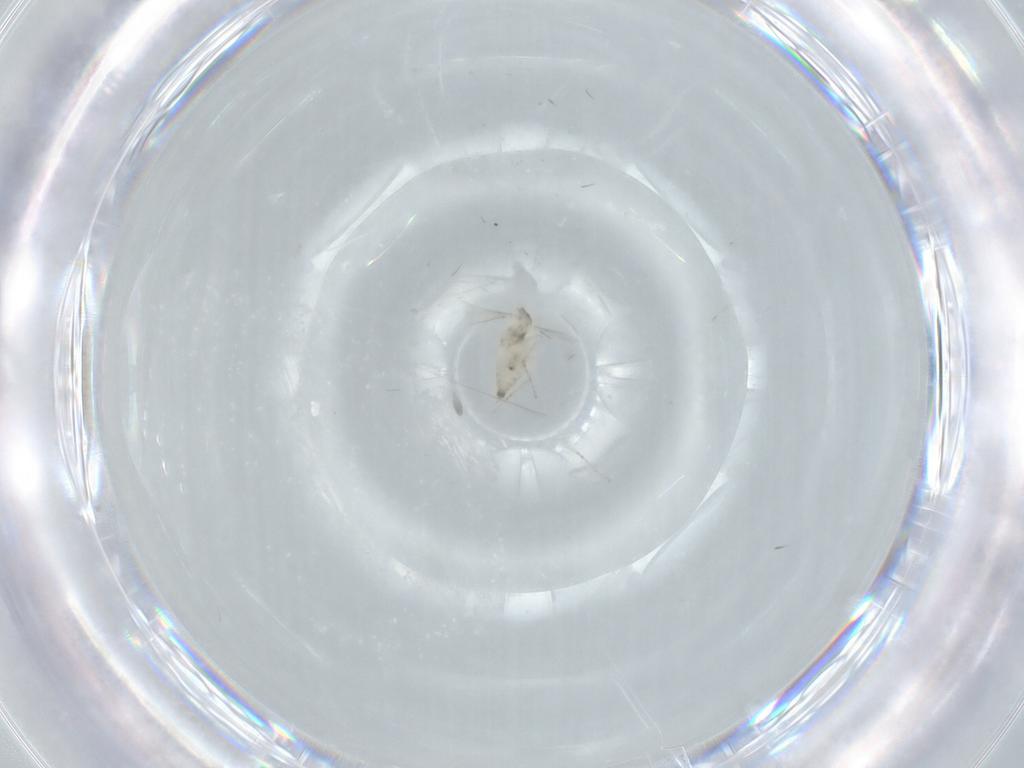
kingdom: Animalia
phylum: Arthropoda
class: Insecta
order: Diptera
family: Cecidomyiidae
